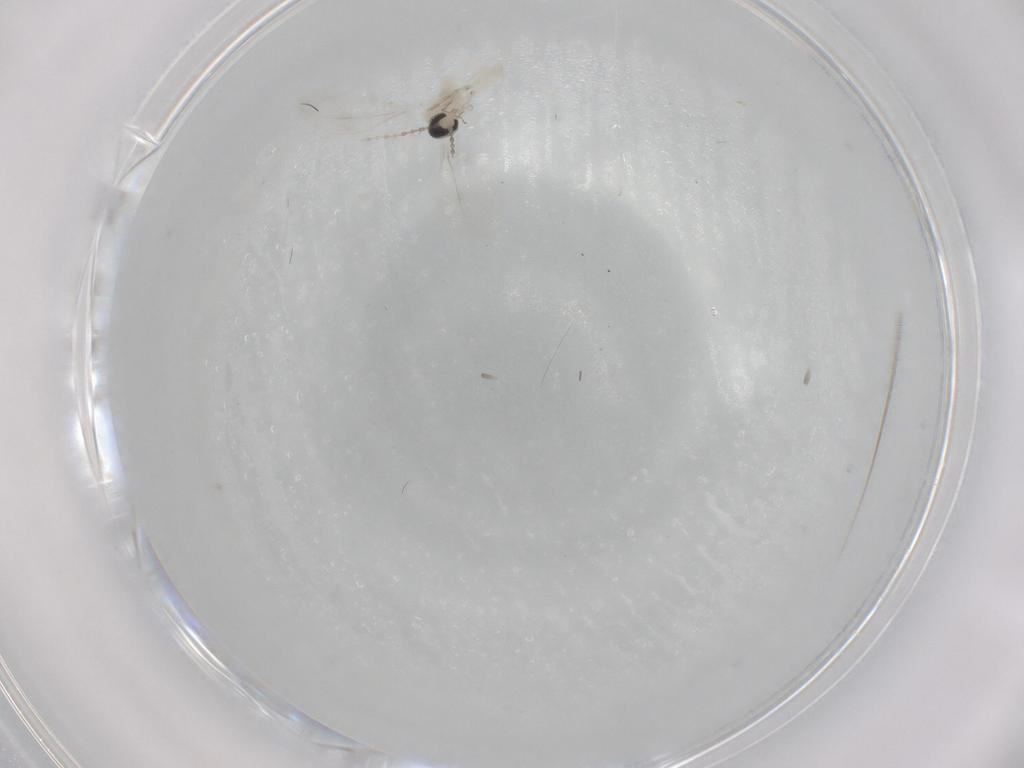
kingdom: Animalia
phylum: Arthropoda
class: Insecta
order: Diptera
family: Cecidomyiidae
